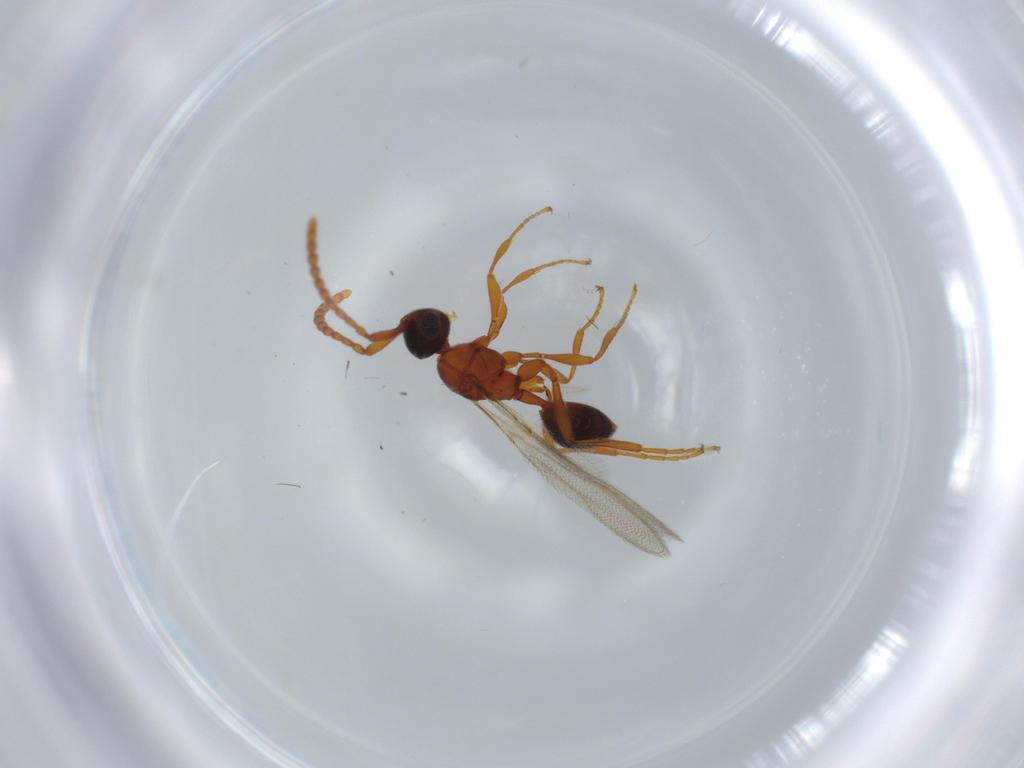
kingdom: Animalia
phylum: Arthropoda
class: Insecta
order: Hymenoptera
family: Diapriidae
